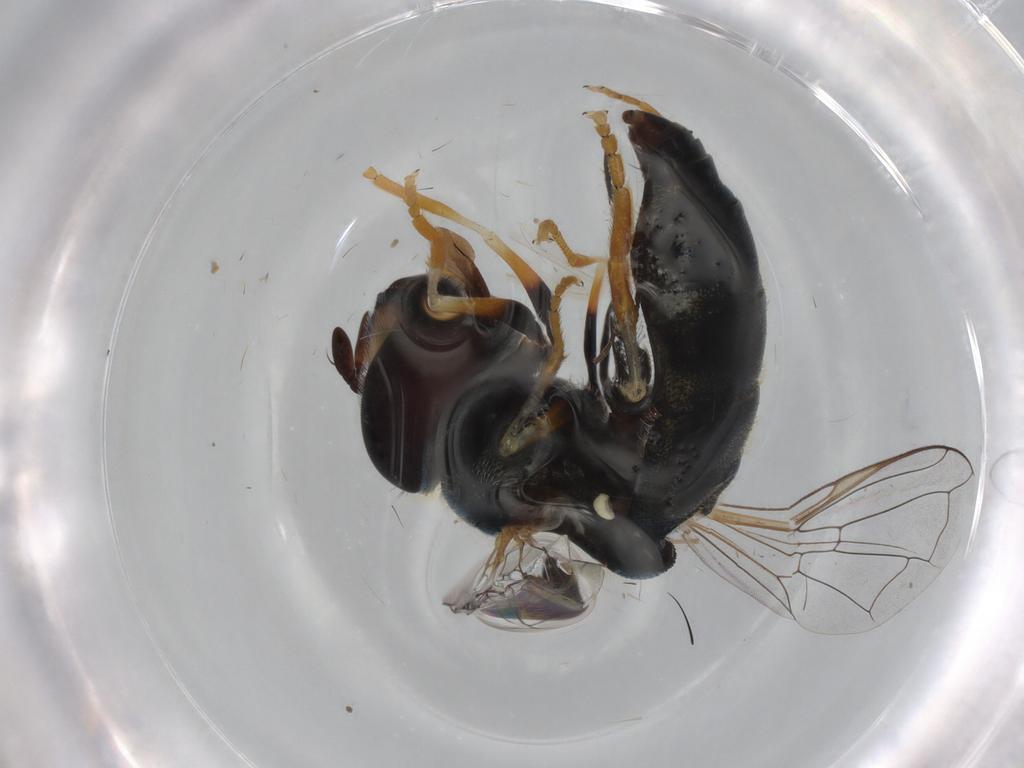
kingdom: Animalia
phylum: Arthropoda
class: Insecta
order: Diptera
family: Syrphidae
